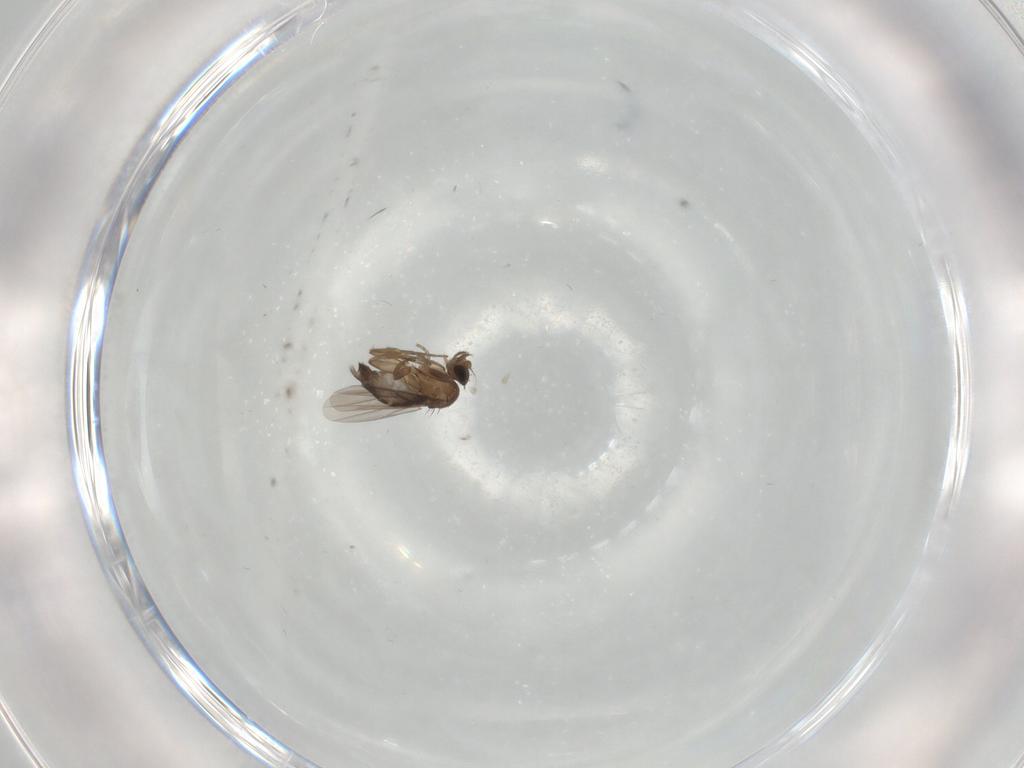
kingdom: Animalia
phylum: Arthropoda
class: Insecta
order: Diptera
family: Phoridae
